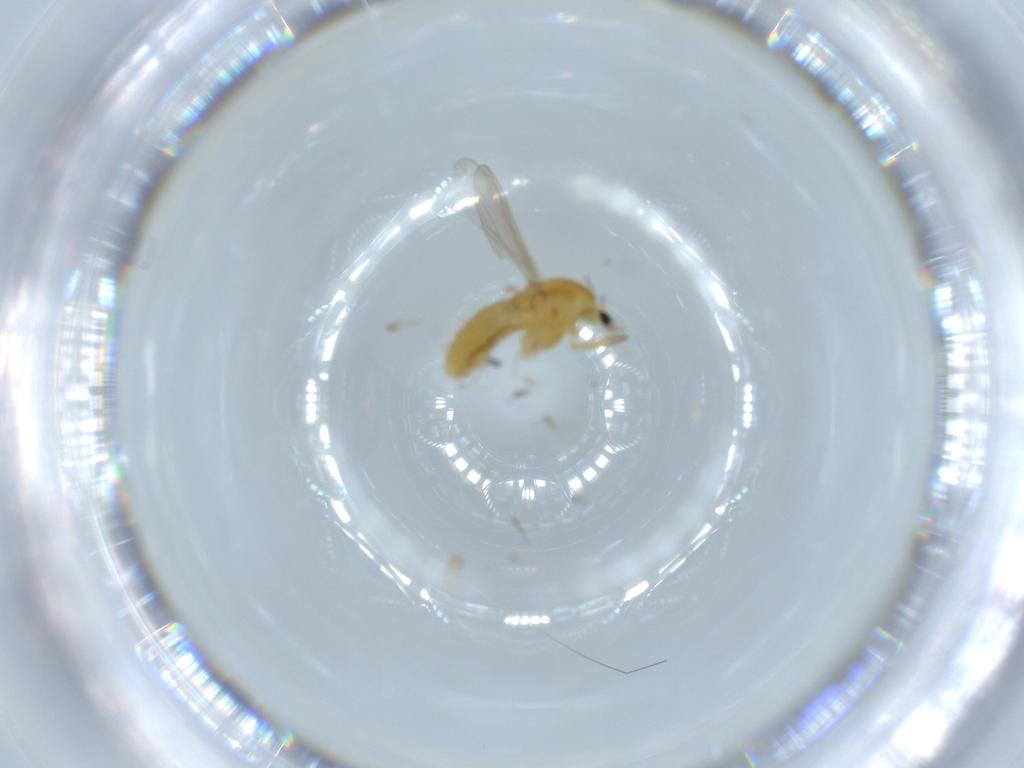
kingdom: Animalia
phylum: Arthropoda
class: Insecta
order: Diptera
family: Chironomidae
